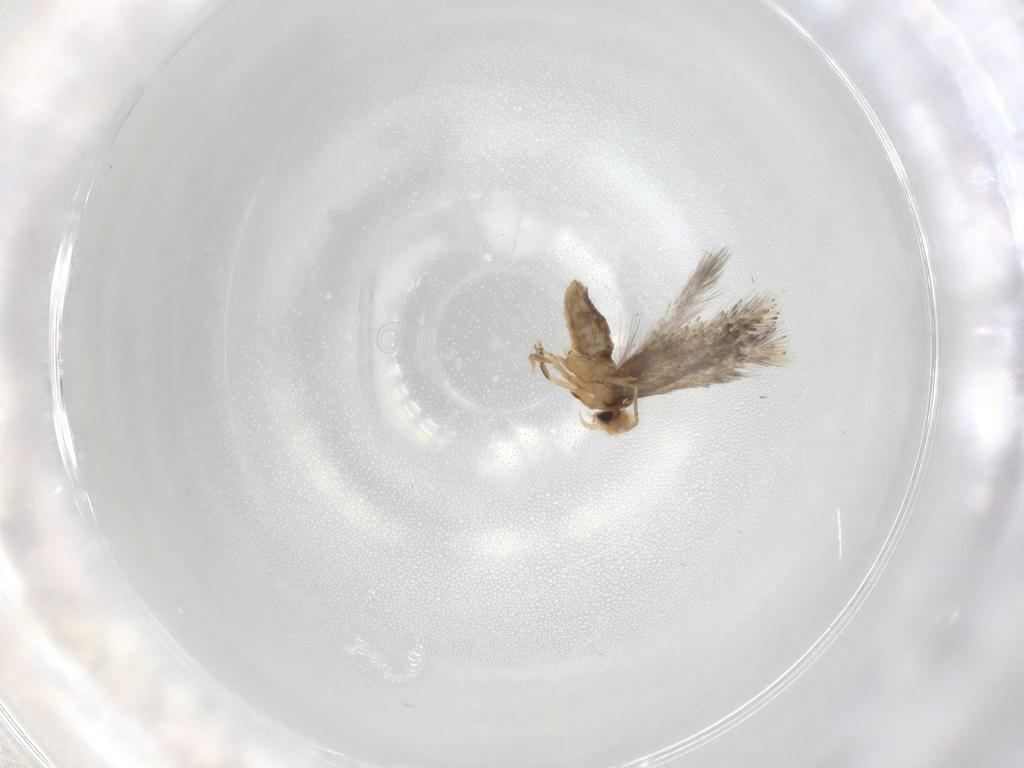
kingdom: Animalia
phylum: Arthropoda
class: Insecta
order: Lepidoptera
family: Nepticulidae
